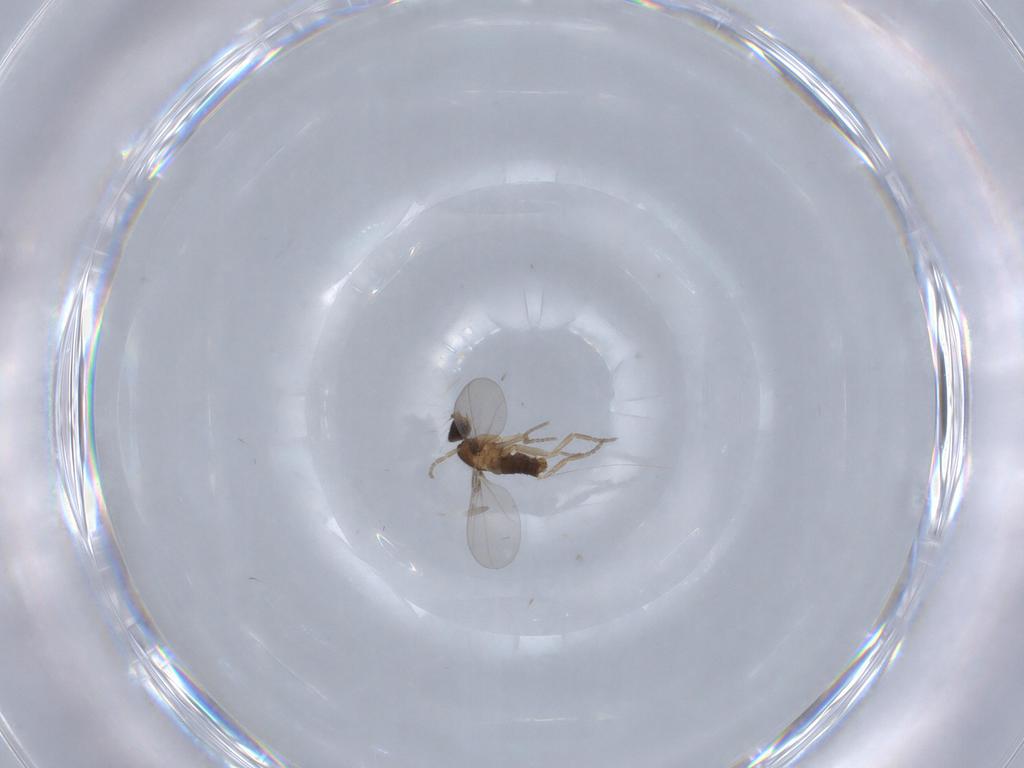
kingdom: Animalia
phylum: Arthropoda
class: Insecta
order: Diptera
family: Phoridae
